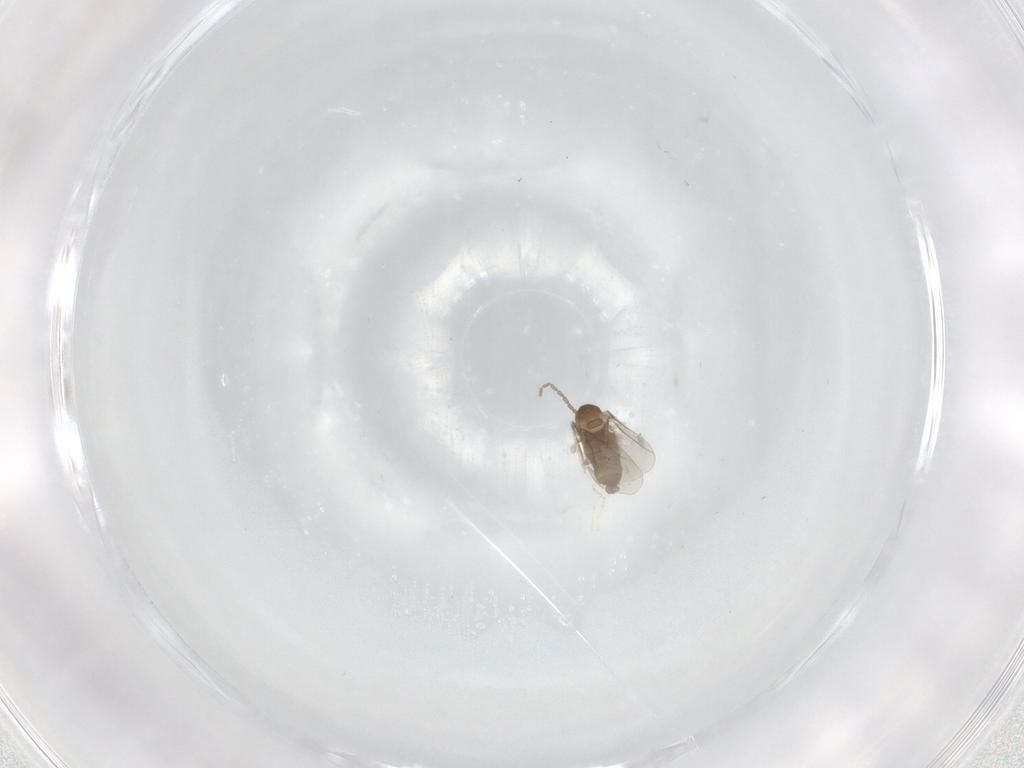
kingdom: Animalia
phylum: Arthropoda
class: Insecta
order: Diptera
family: Cecidomyiidae
